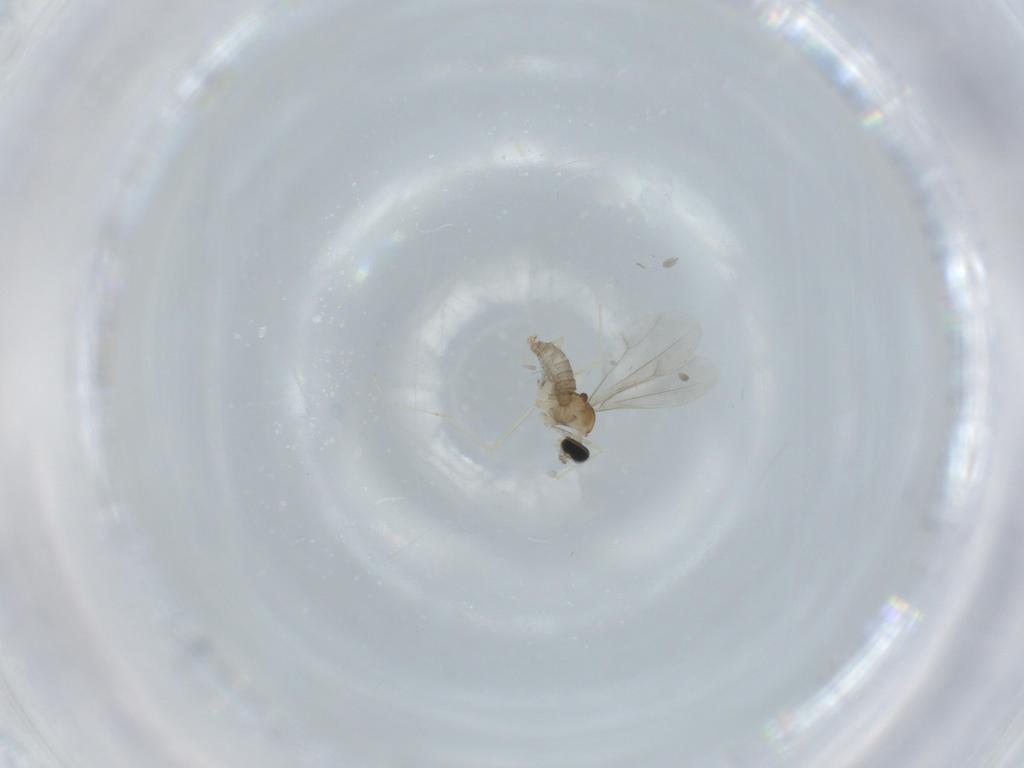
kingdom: Animalia
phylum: Arthropoda
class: Insecta
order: Diptera
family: Cecidomyiidae
